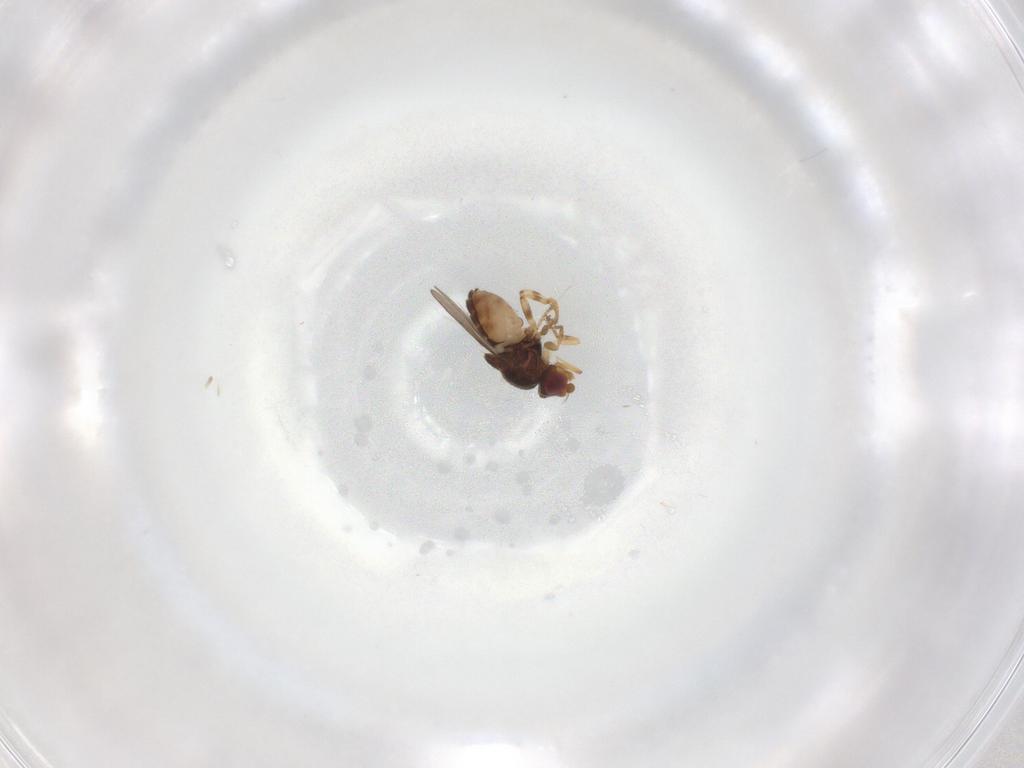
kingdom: Animalia
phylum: Arthropoda
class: Insecta
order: Diptera
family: Chloropidae
